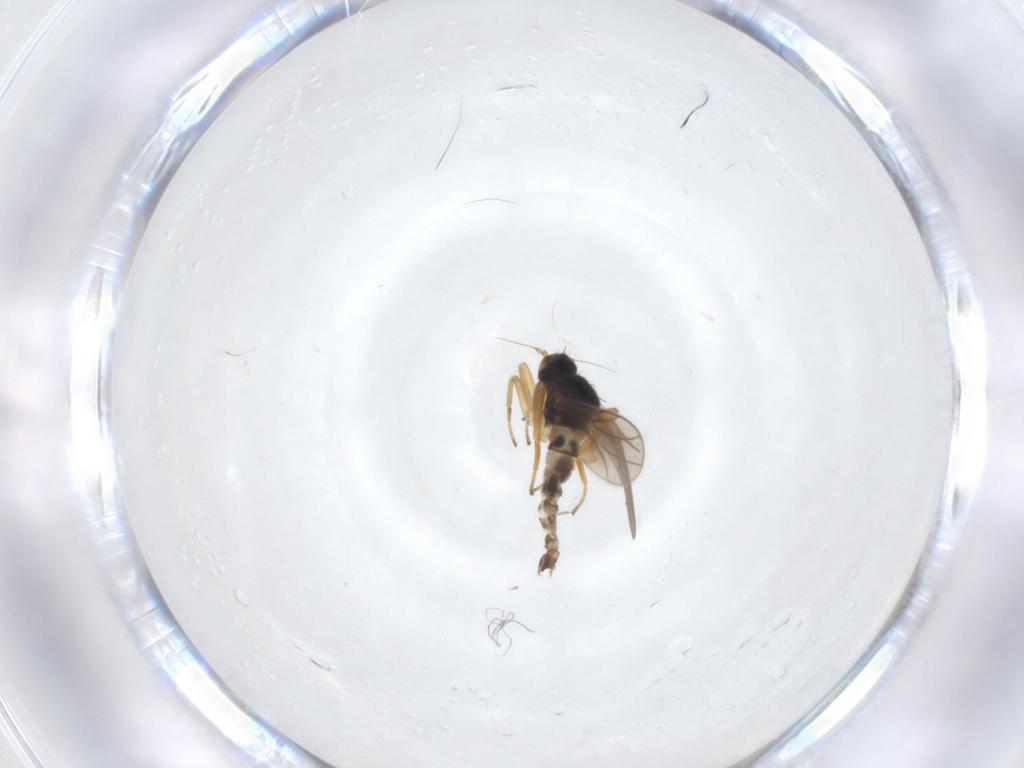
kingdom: Animalia
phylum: Arthropoda
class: Insecta
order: Diptera
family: Hybotidae
